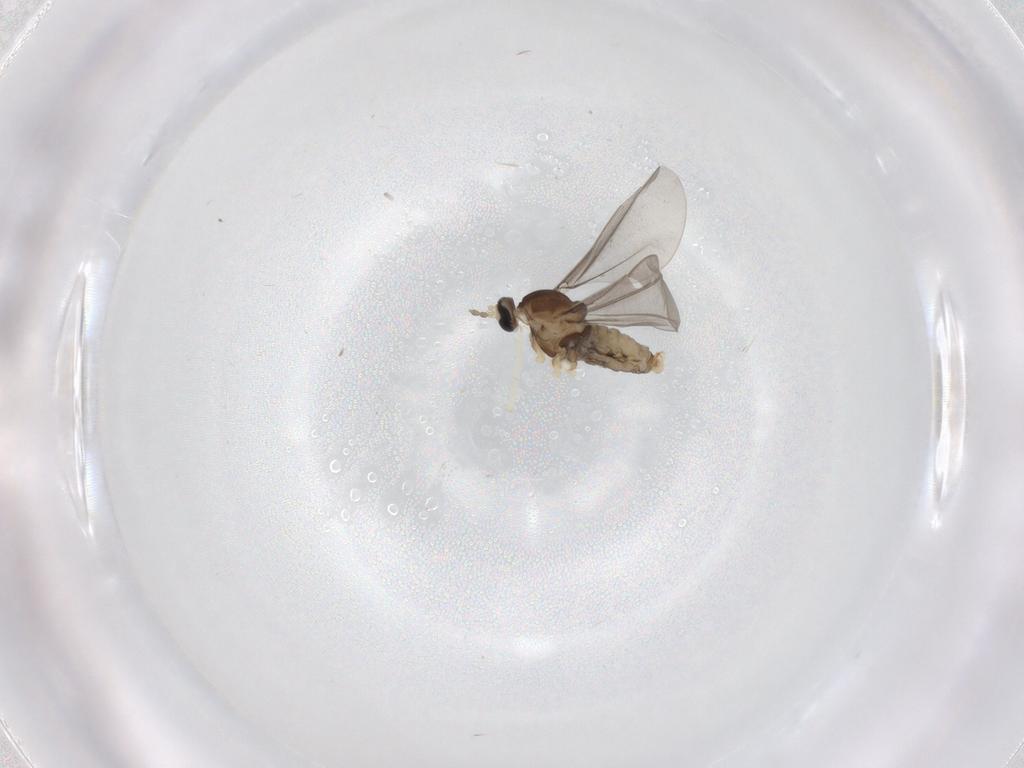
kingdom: Animalia
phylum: Arthropoda
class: Insecta
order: Diptera
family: Cecidomyiidae
